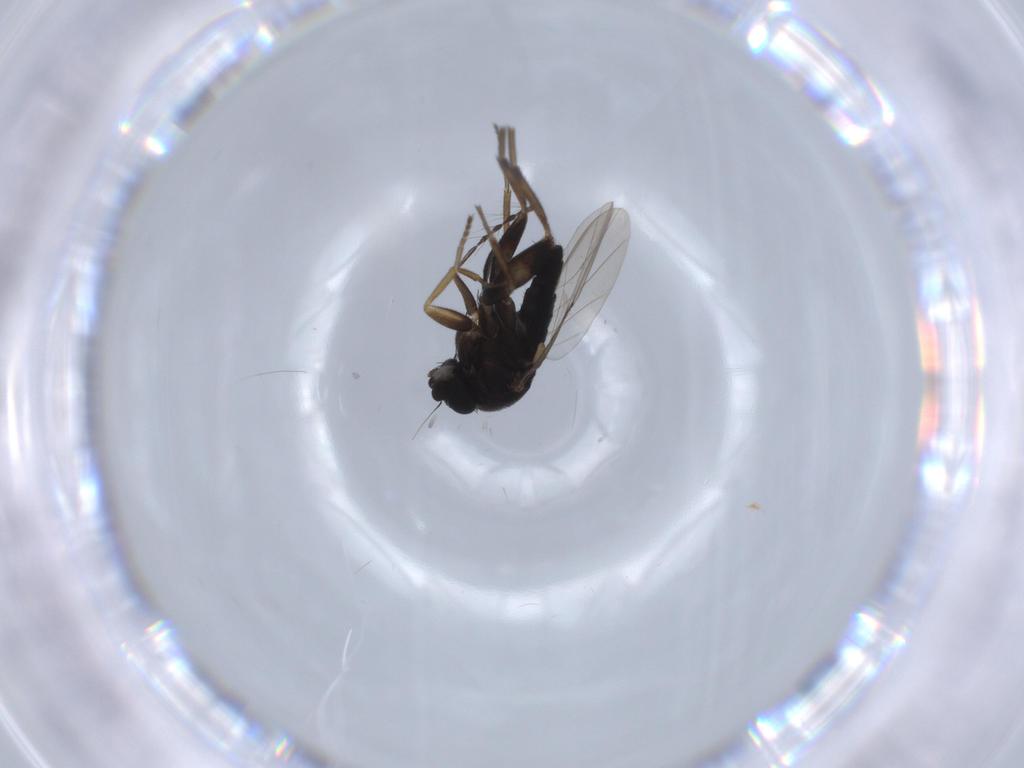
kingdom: Animalia
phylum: Arthropoda
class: Insecta
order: Diptera
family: Phoridae
